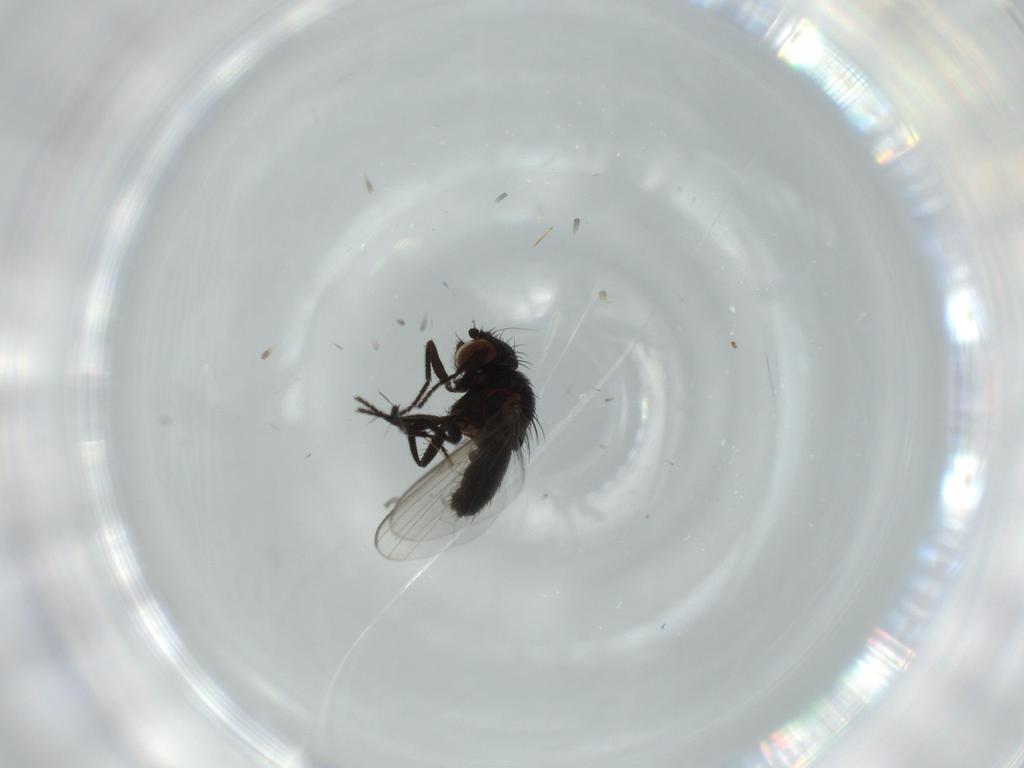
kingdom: Animalia
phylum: Arthropoda
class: Insecta
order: Diptera
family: Milichiidae
